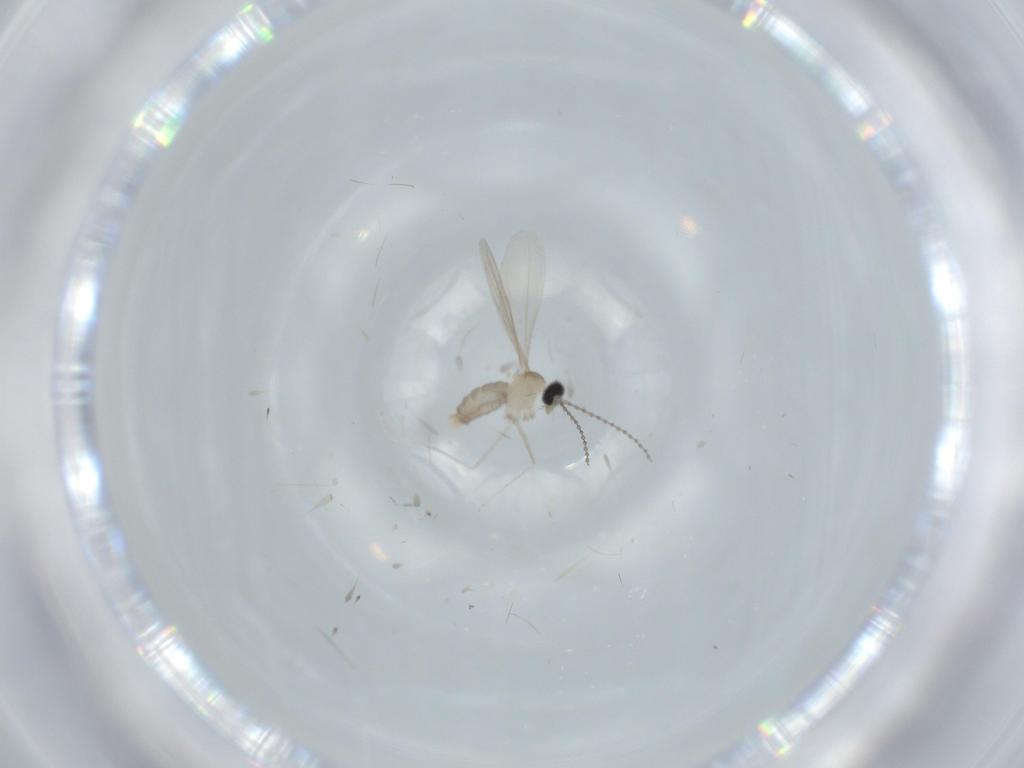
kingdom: Animalia
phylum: Arthropoda
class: Insecta
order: Diptera
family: Cecidomyiidae
